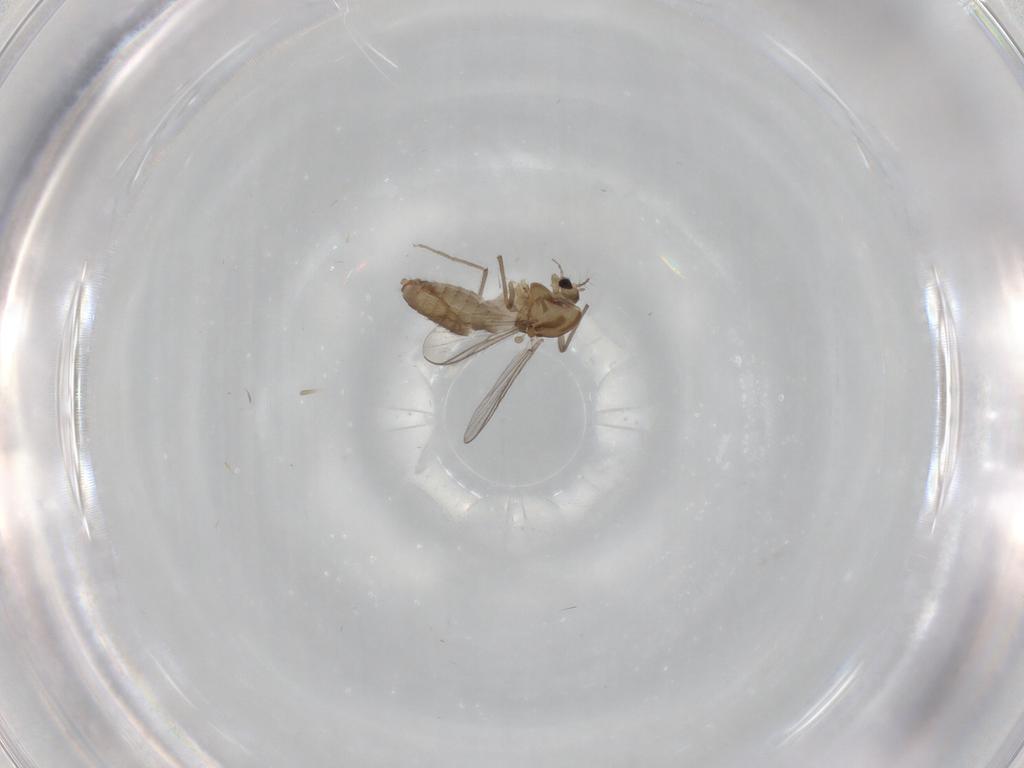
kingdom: Animalia
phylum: Arthropoda
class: Insecta
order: Diptera
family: Chironomidae
